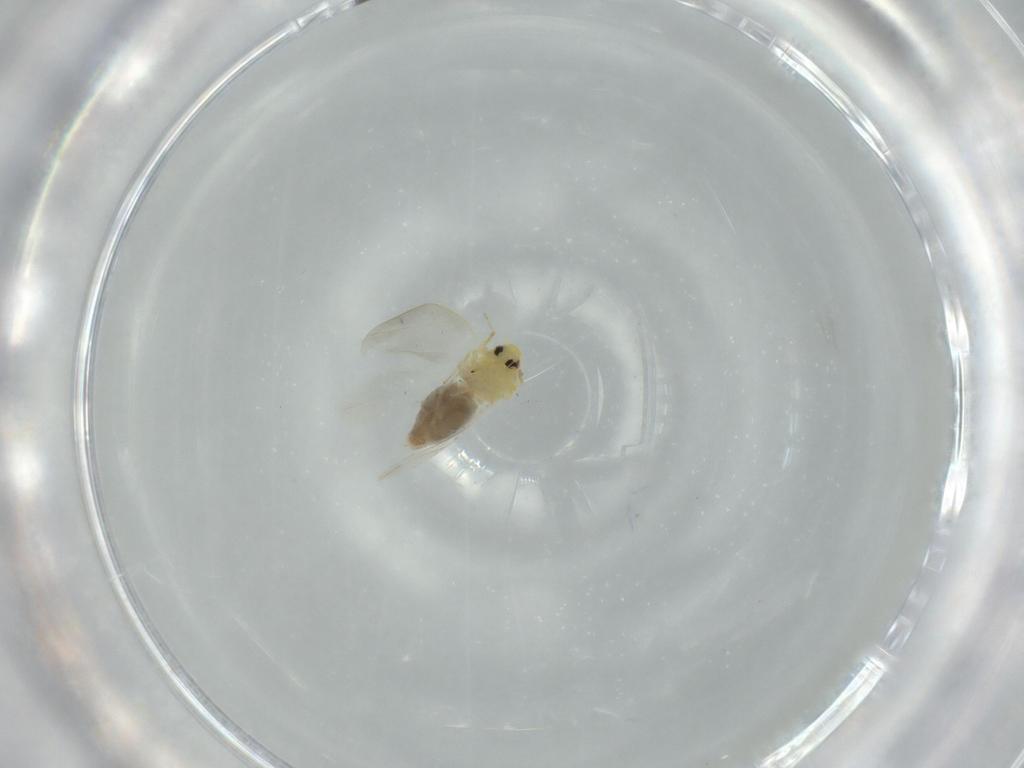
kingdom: Animalia
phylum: Arthropoda
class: Insecta
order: Hemiptera
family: Aleyrodidae
